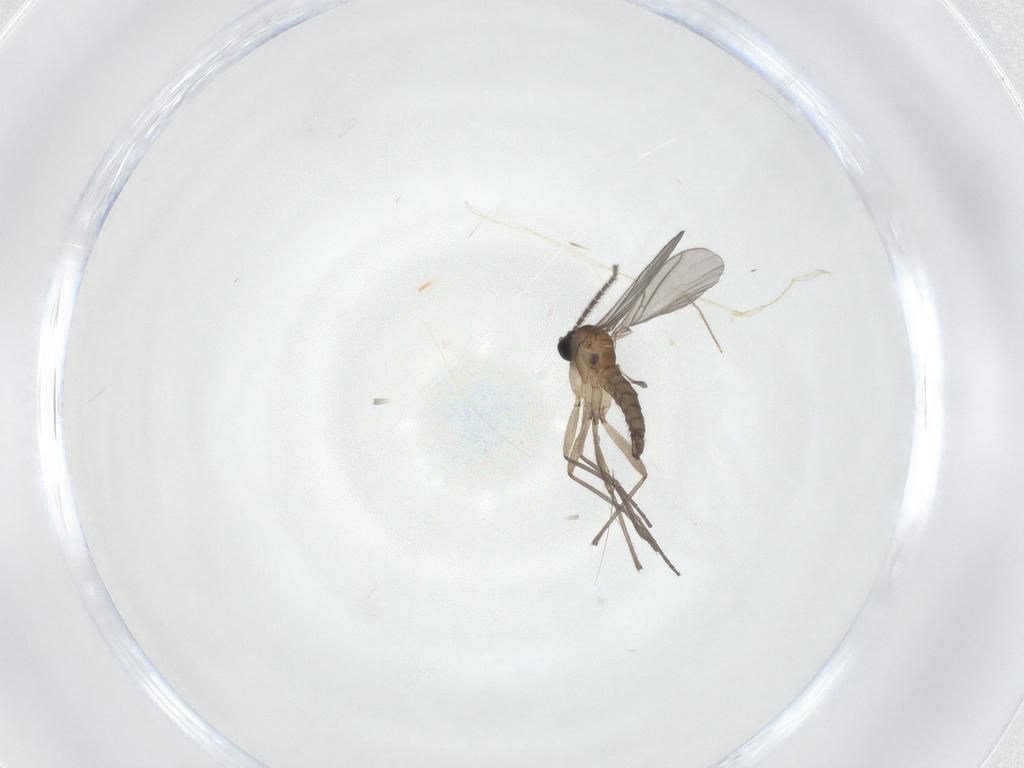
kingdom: Animalia
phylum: Arthropoda
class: Insecta
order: Diptera
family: Sciaridae
